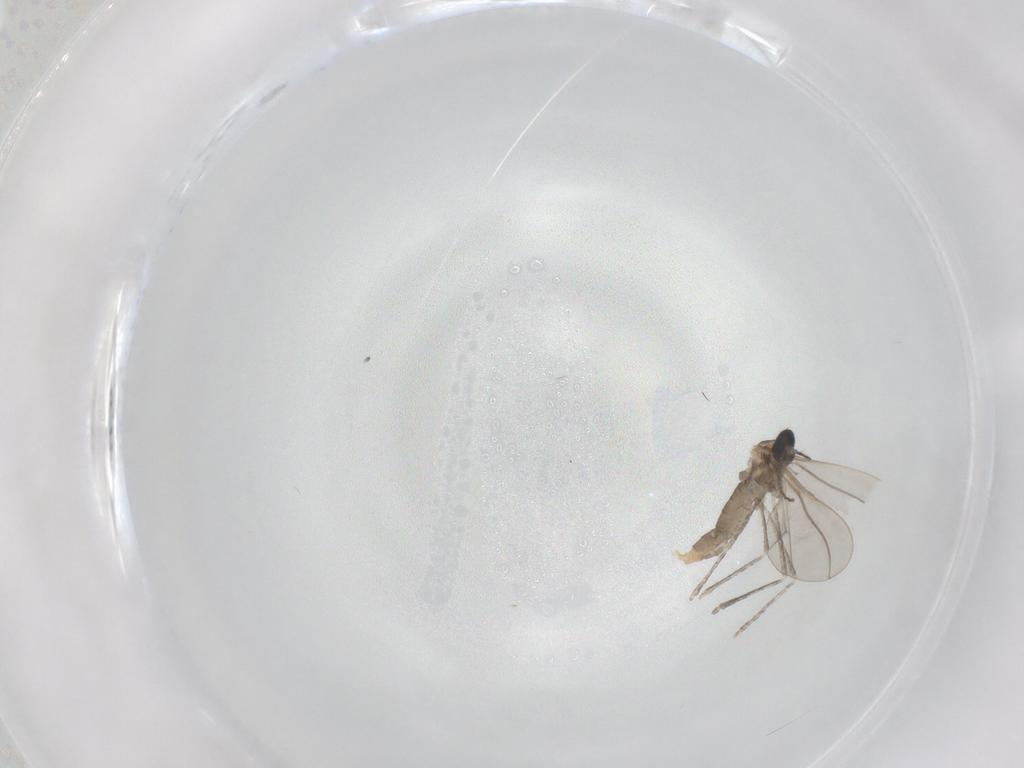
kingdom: Animalia
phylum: Arthropoda
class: Insecta
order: Diptera
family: Cecidomyiidae
